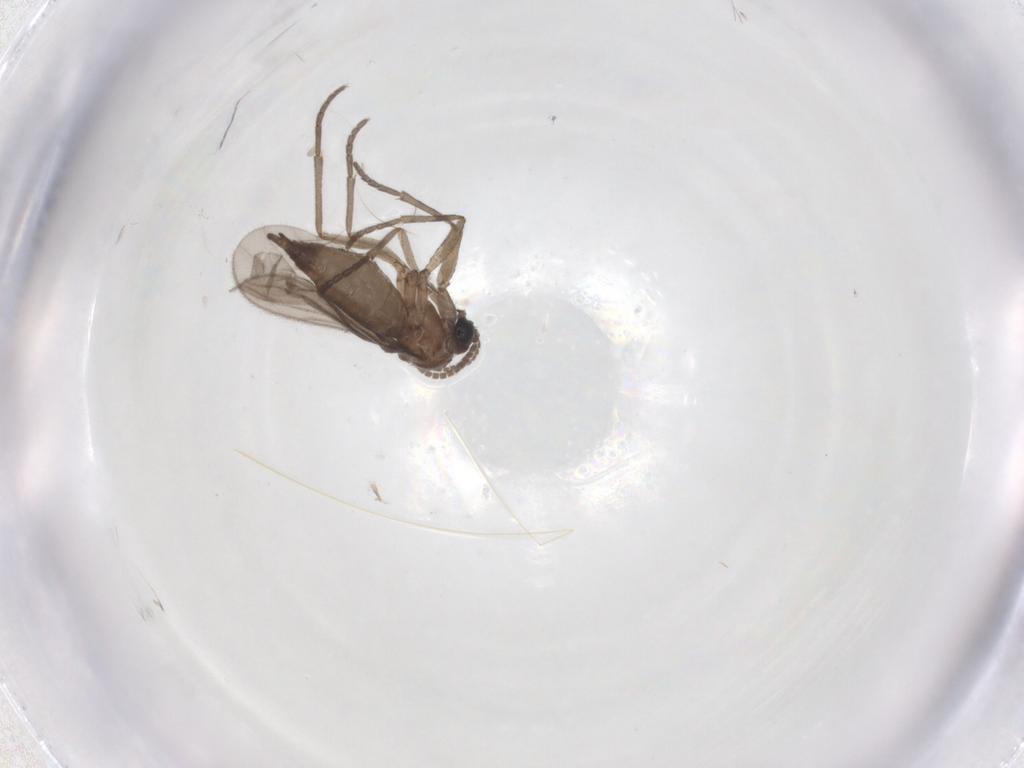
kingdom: Animalia
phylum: Arthropoda
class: Insecta
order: Diptera
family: Sciaridae
